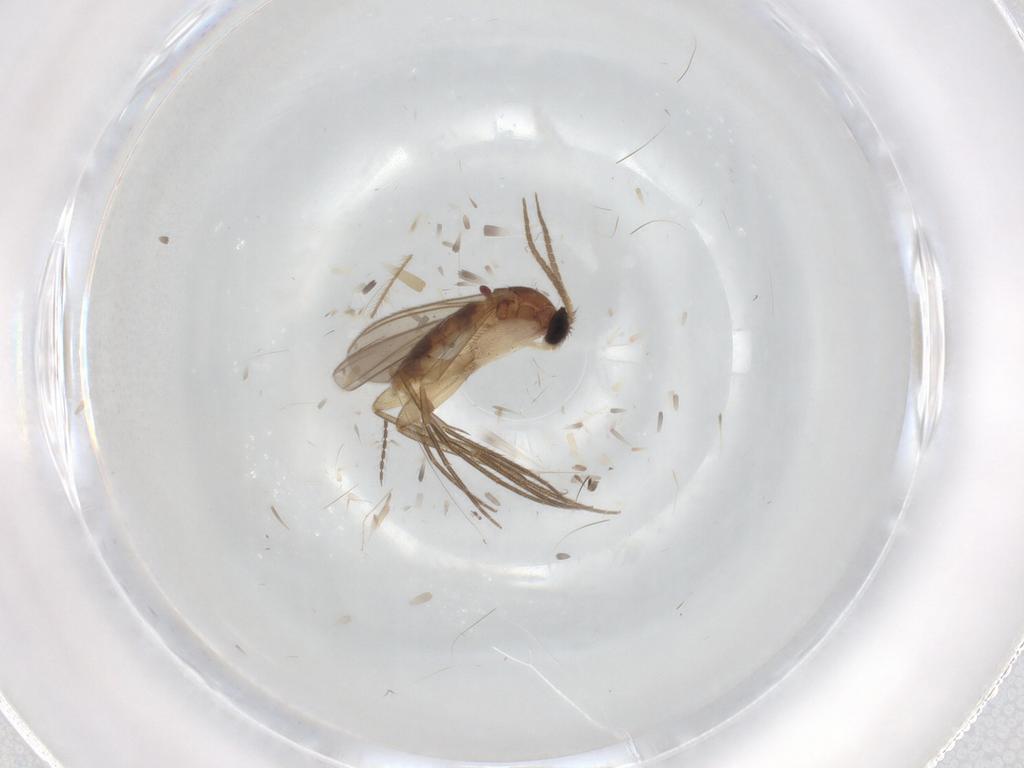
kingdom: Animalia
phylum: Arthropoda
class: Insecta
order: Diptera
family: Mycetophilidae
